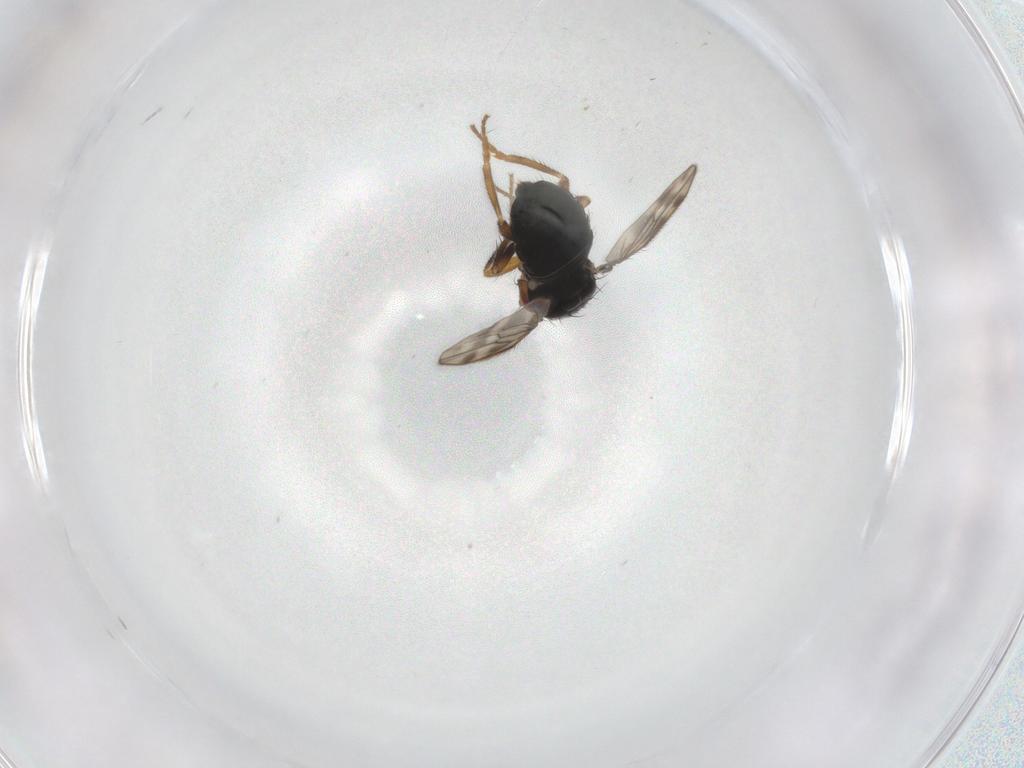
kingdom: Animalia
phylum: Arthropoda
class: Insecta
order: Diptera
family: Sphaeroceridae
